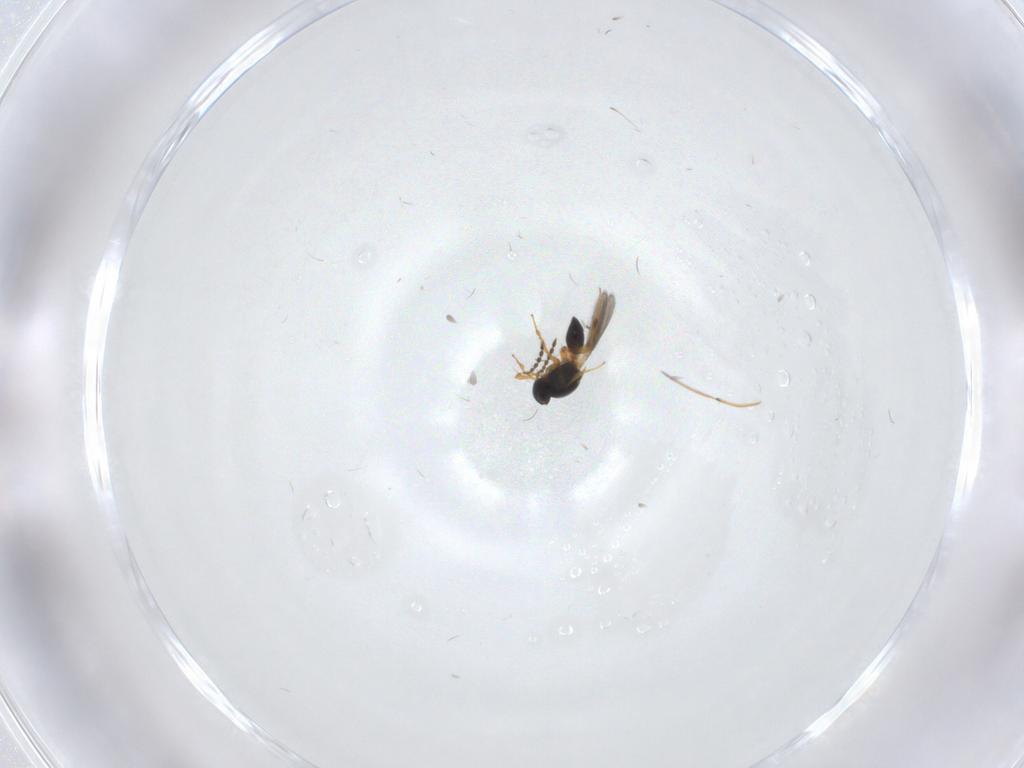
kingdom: Animalia
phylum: Arthropoda
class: Insecta
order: Hymenoptera
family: Platygastridae
